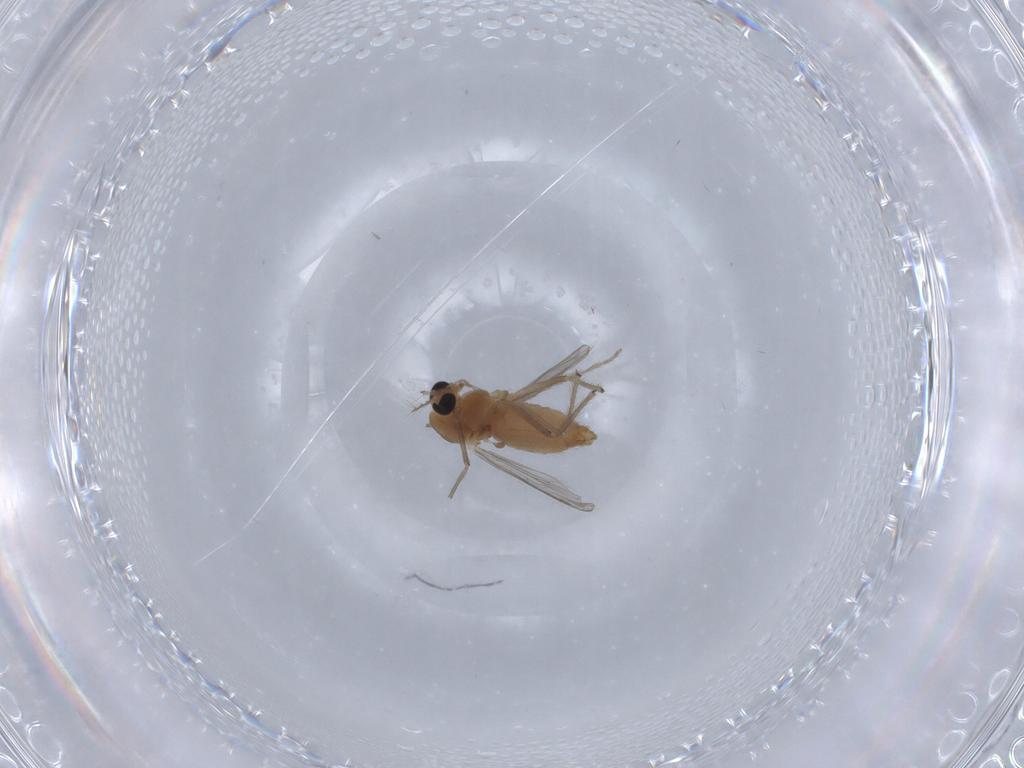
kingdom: Animalia
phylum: Arthropoda
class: Insecta
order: Diptera
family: Chironomidae
